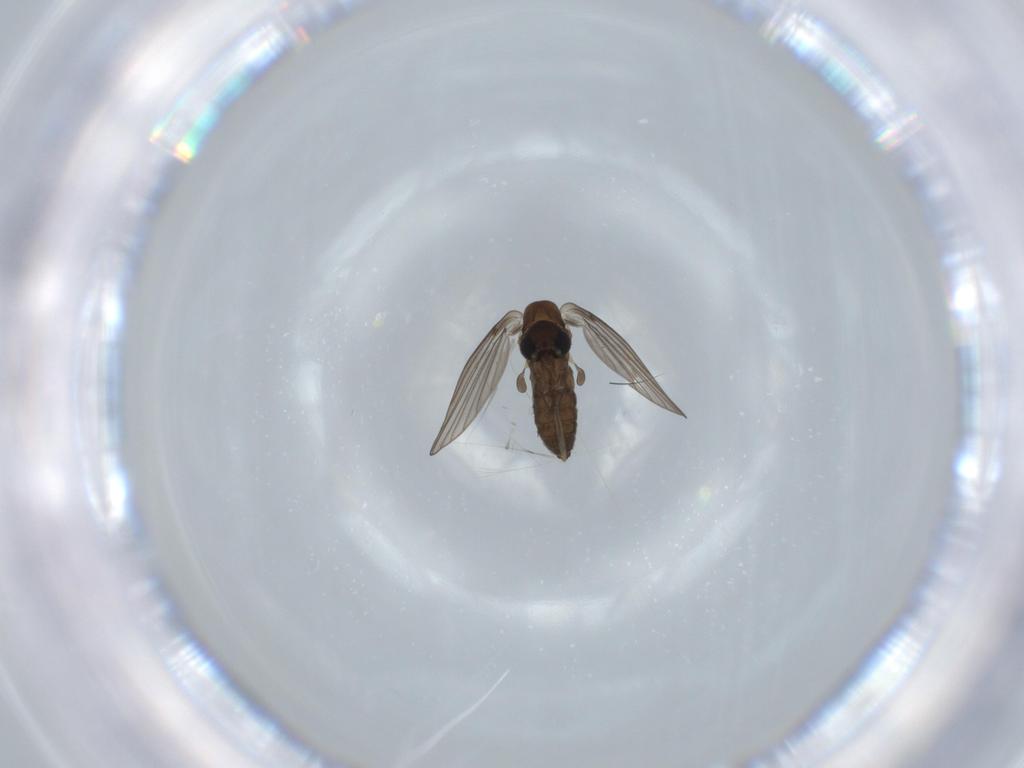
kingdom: Animalia
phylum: Arthropoda
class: Insecta
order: Diptera
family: Psychodidae
